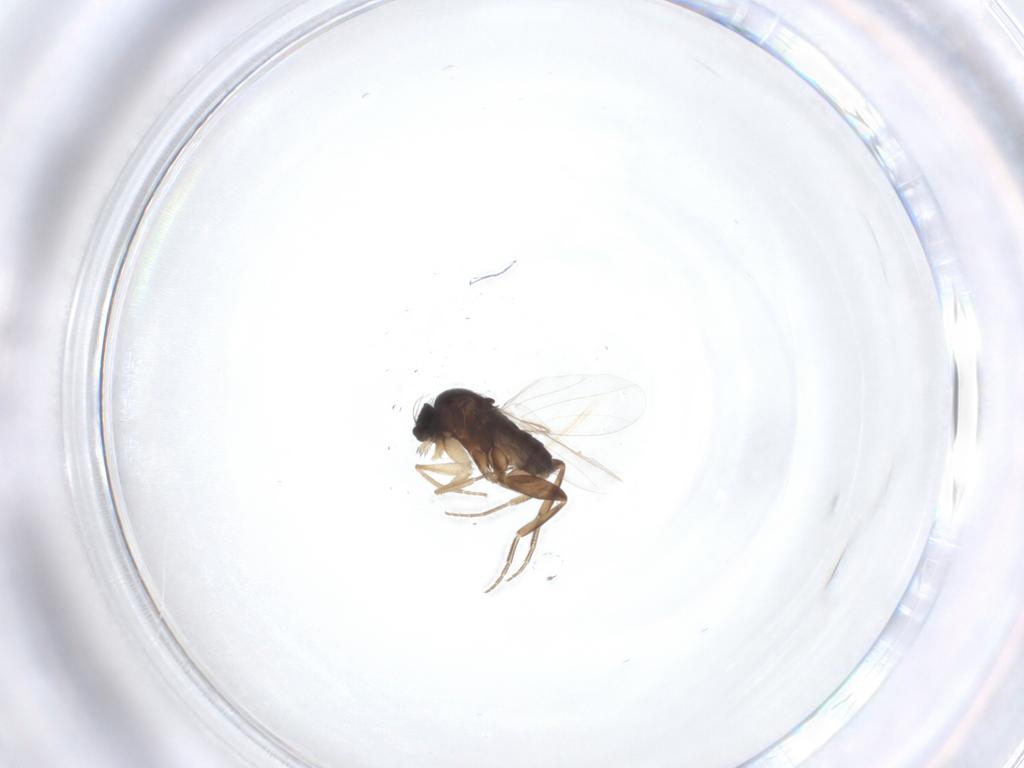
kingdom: Animalia
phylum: Arthropoda
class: Insecta
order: Diptera
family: Phoridae
